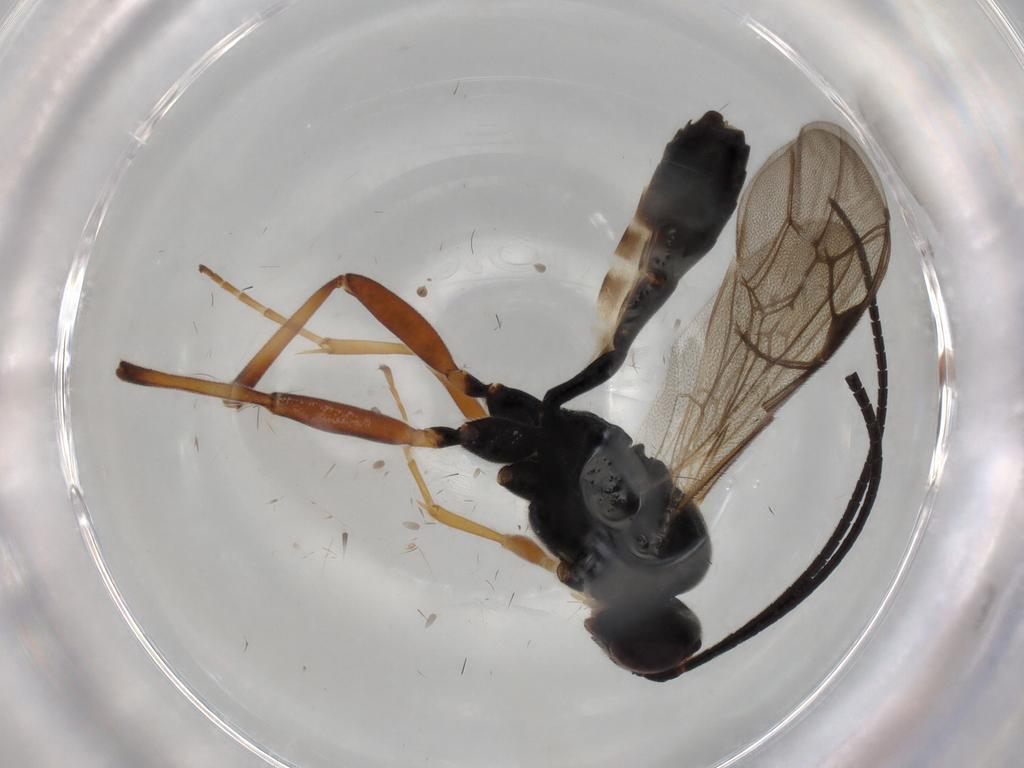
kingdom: Animalia
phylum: Arthropoda
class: Insecta
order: Hymenoptera
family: Ichneumonidae
